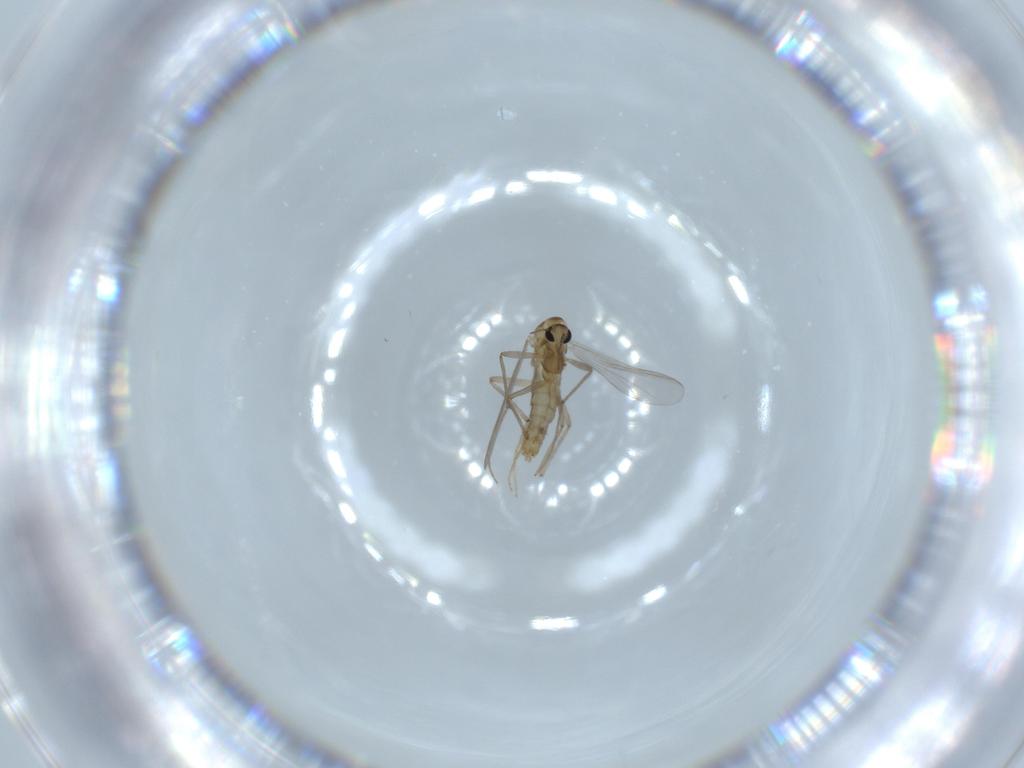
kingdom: Animalia
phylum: Arthropoda
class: Insecta
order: Diptera
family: Chironomidae
